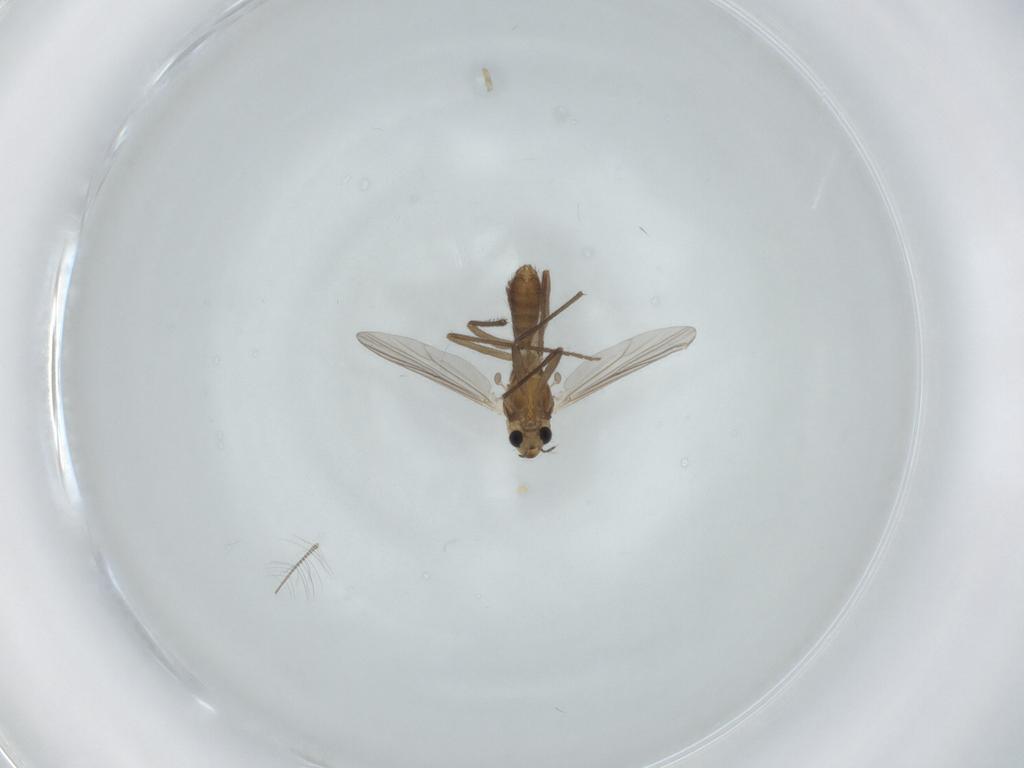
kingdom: Animalia
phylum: Arthropoda
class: Insecta
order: Diptera
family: Chironomidae
